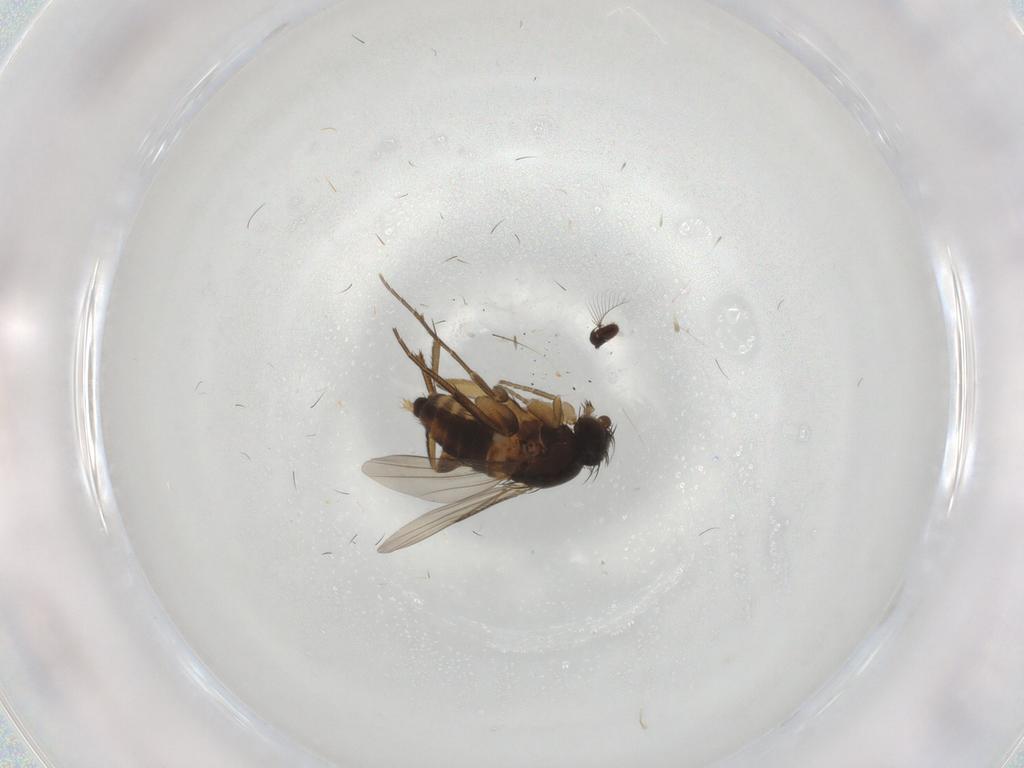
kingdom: Animalia
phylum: Arthropoda
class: Insecta
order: Diptera
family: Phoridae
